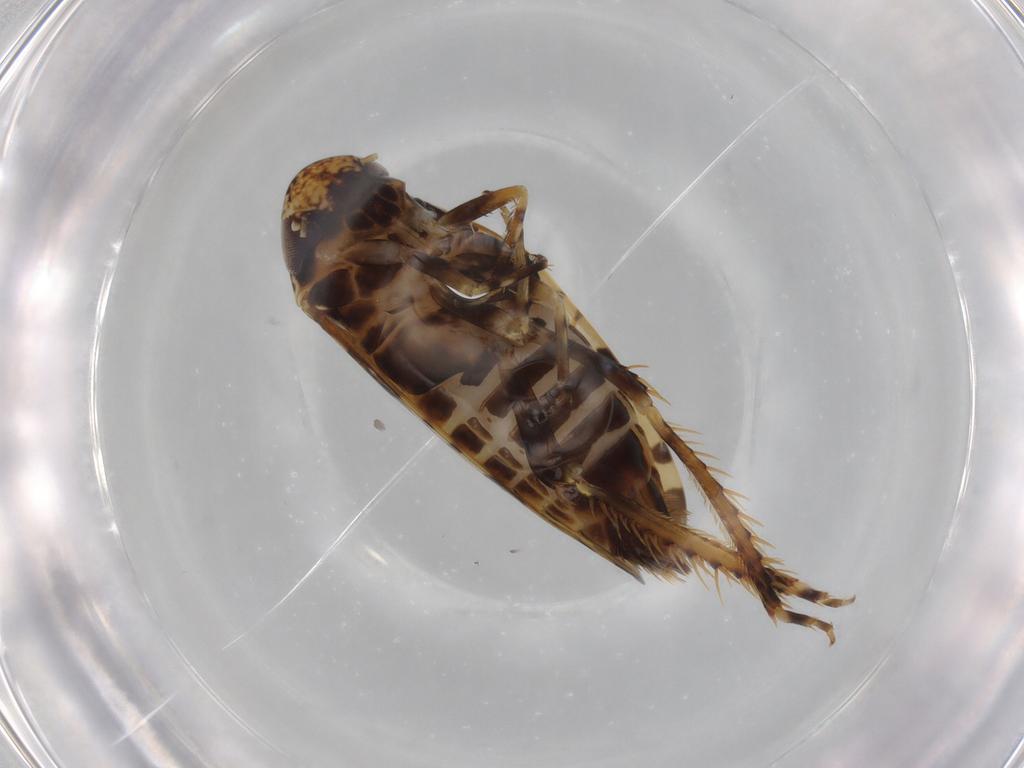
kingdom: Animalia
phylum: Arthropoda
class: Insecta
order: Hemiptera
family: Cicadellidae
